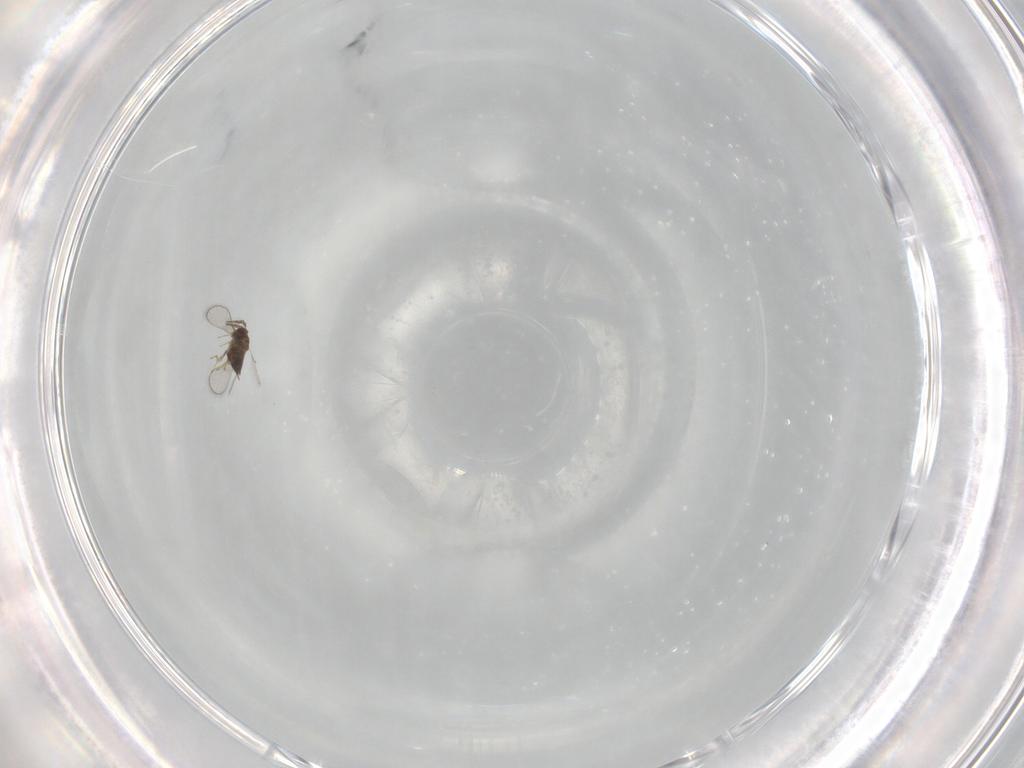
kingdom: Animalia
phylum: Arthropoda
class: Insecta
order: Hymenoptera
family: Trichogrammatidae
